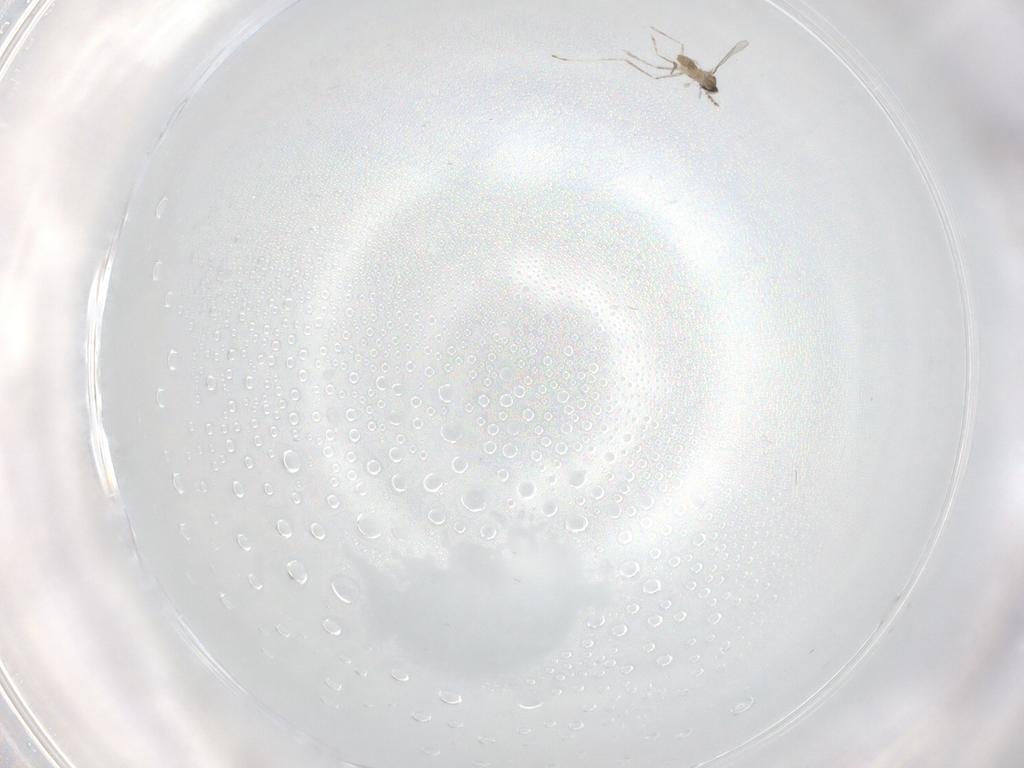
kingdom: Animalia
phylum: Arthropoda
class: Insecta
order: Diptera
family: Cecidomyiidae
